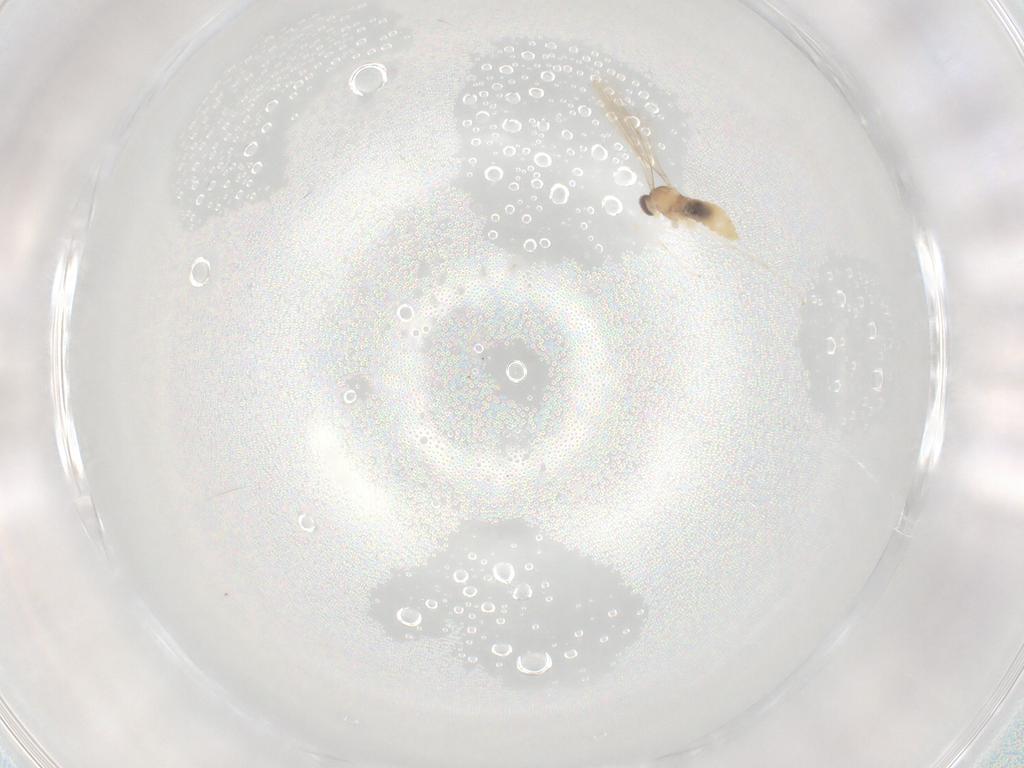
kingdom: Animalia
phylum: Arthropoda
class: Insecta
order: Diptera
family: Cecidomyiidae
